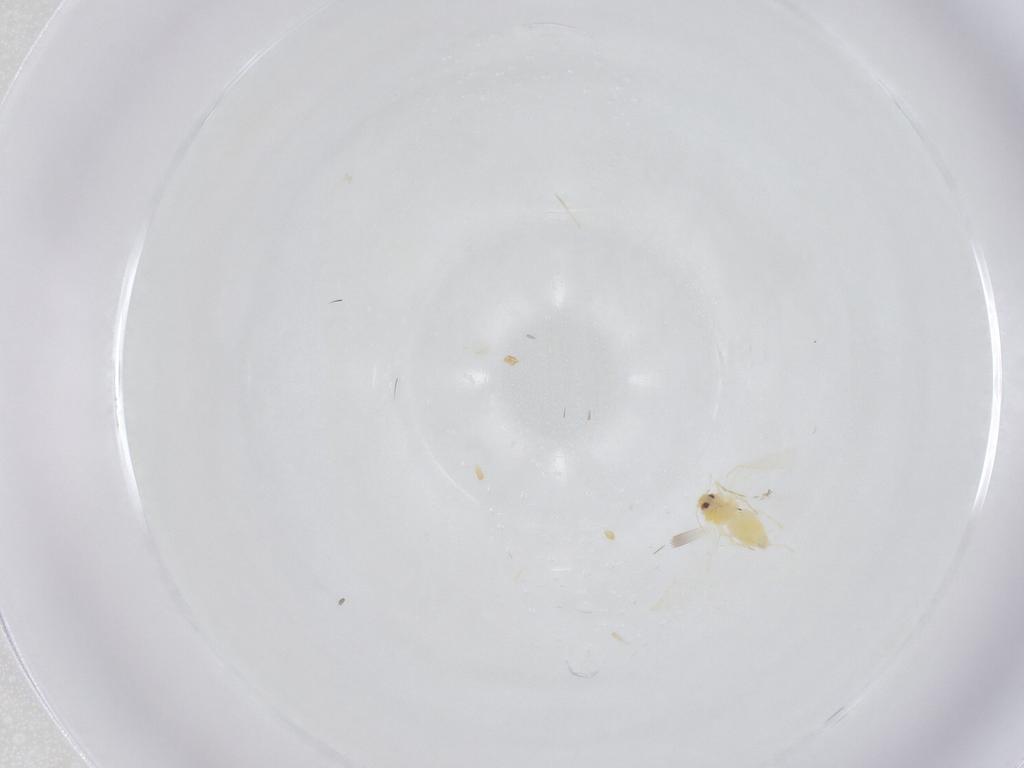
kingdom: Animalia
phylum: Arthropoda
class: Insecta
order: Hemiptera
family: Aleyrodidae
